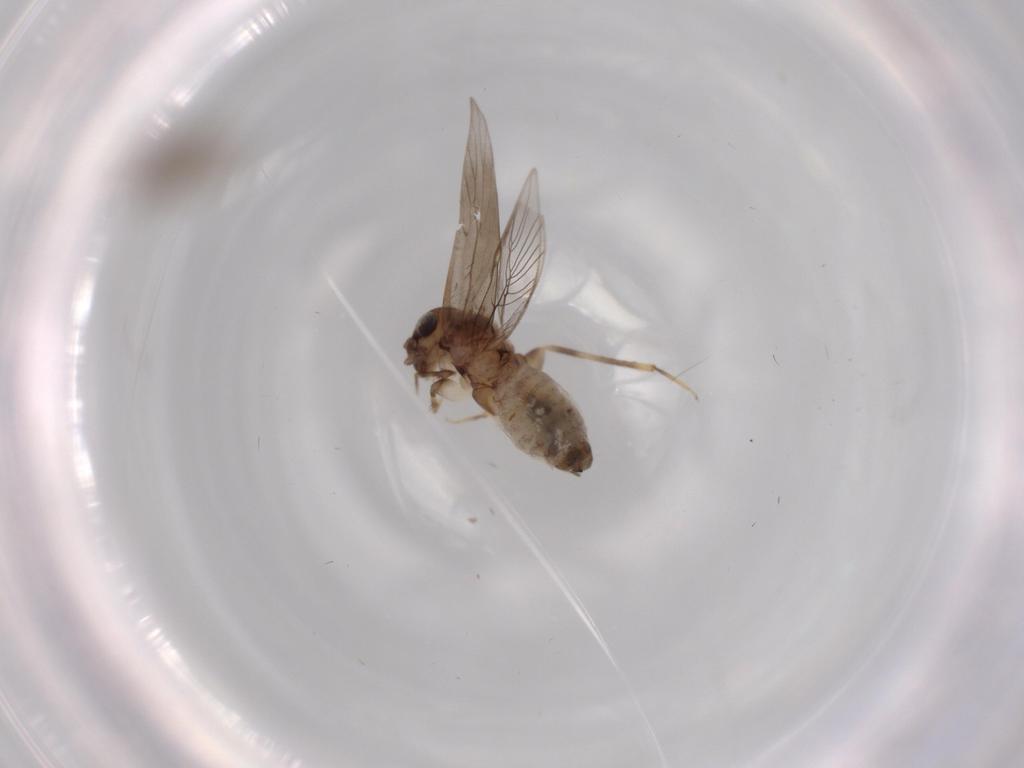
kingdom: Animalia
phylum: Arthropoda
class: Insecta
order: Psocodea
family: Lepidopsocidae
